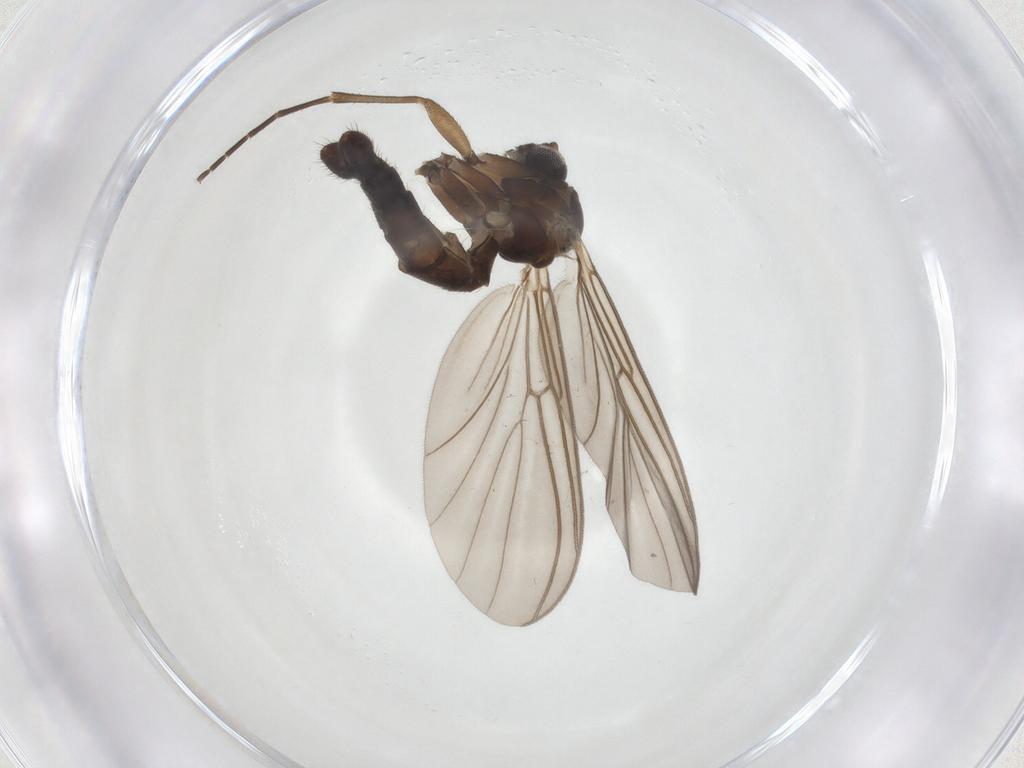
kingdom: Animalia
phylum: Arthropoda
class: Insecta
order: Diptera
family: Mycetophilidae
